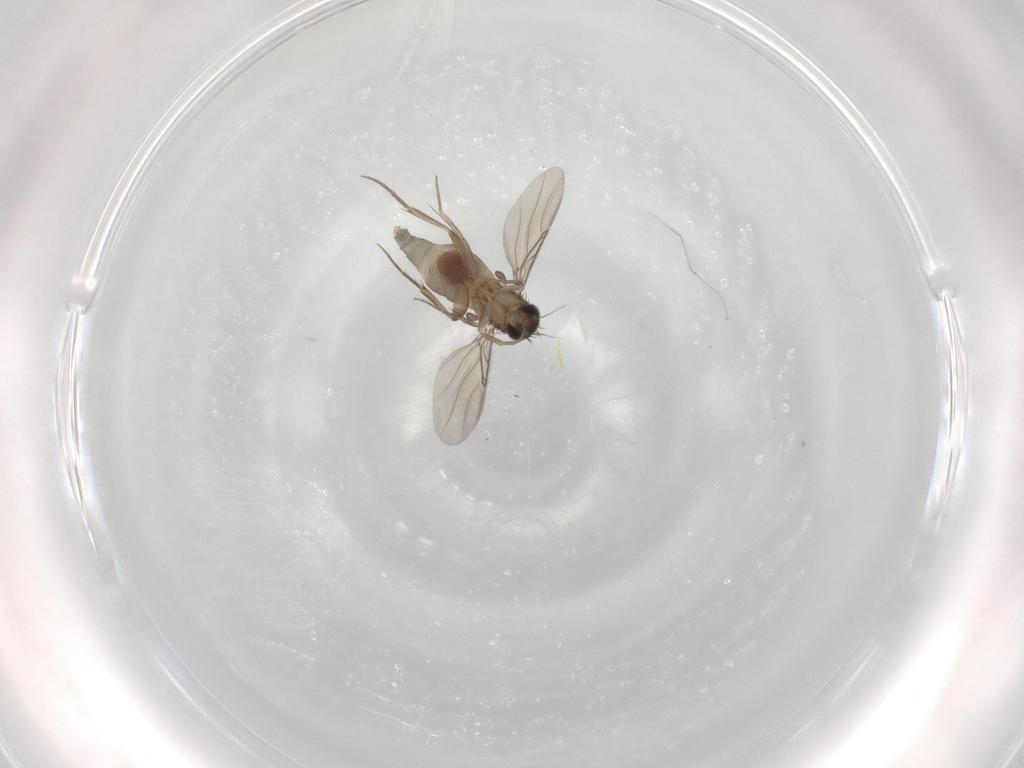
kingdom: Animalia
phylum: Arthropoda
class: Insecta
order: Diptera
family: Phoridae
